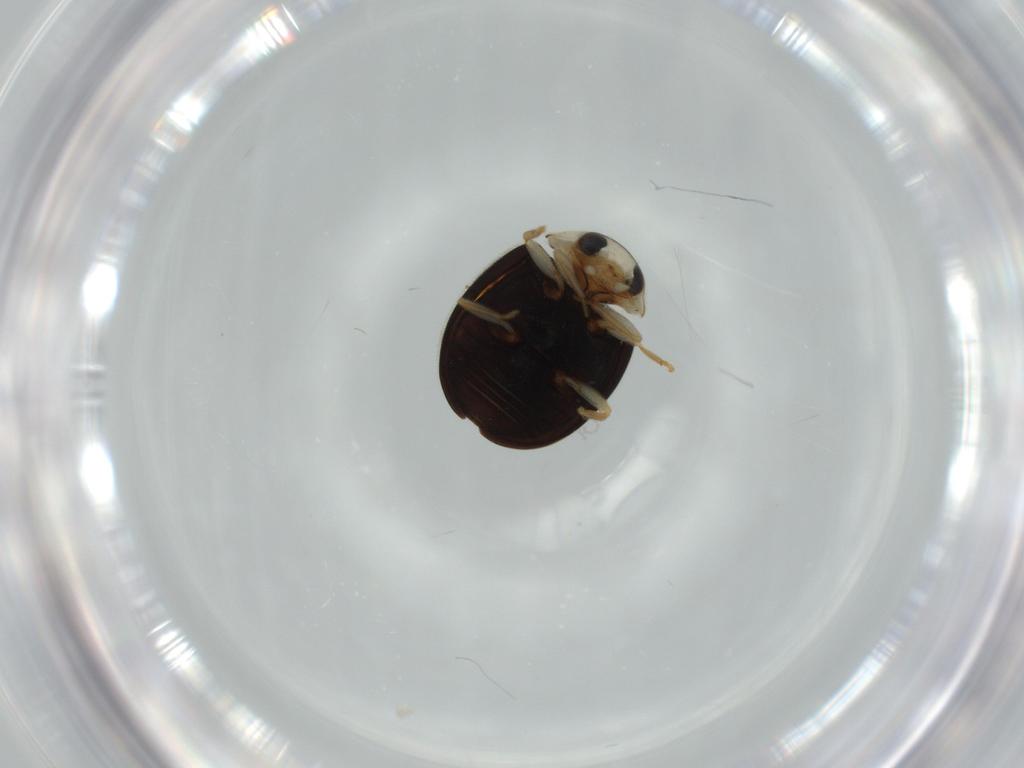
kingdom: Animalia
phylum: Arthropoda
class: Insecta
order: Coleoptera
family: Coccinellidae
